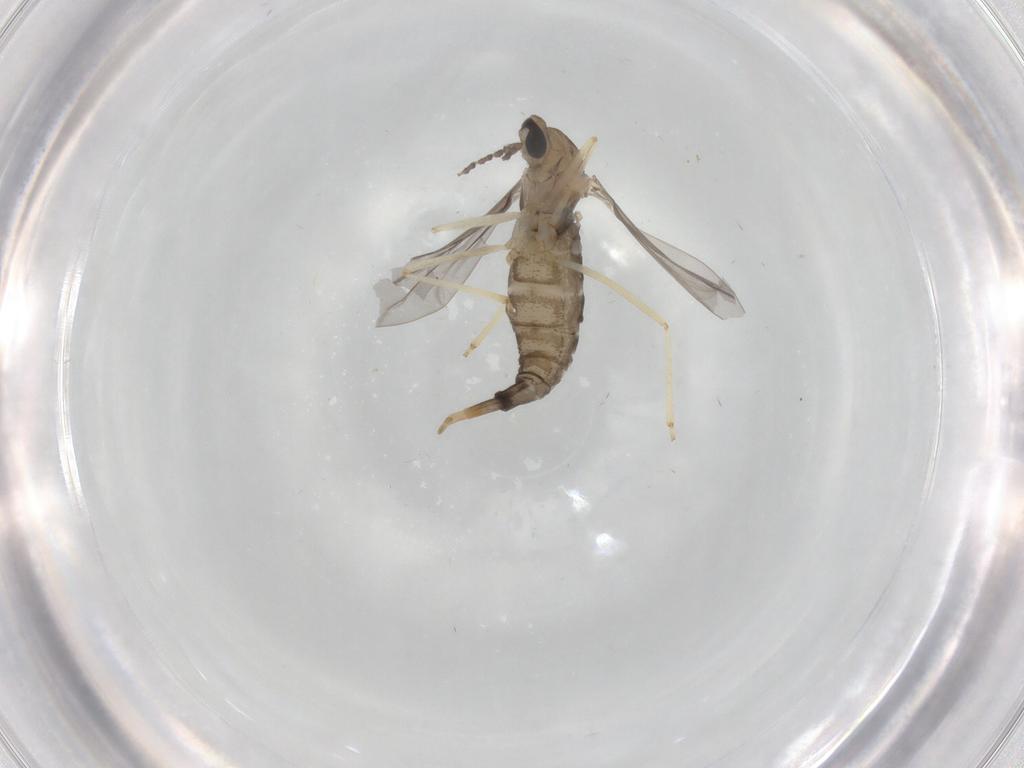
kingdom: Animalia
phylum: Arthropoda
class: Insecta
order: Diptera
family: Cecidomyiidae
